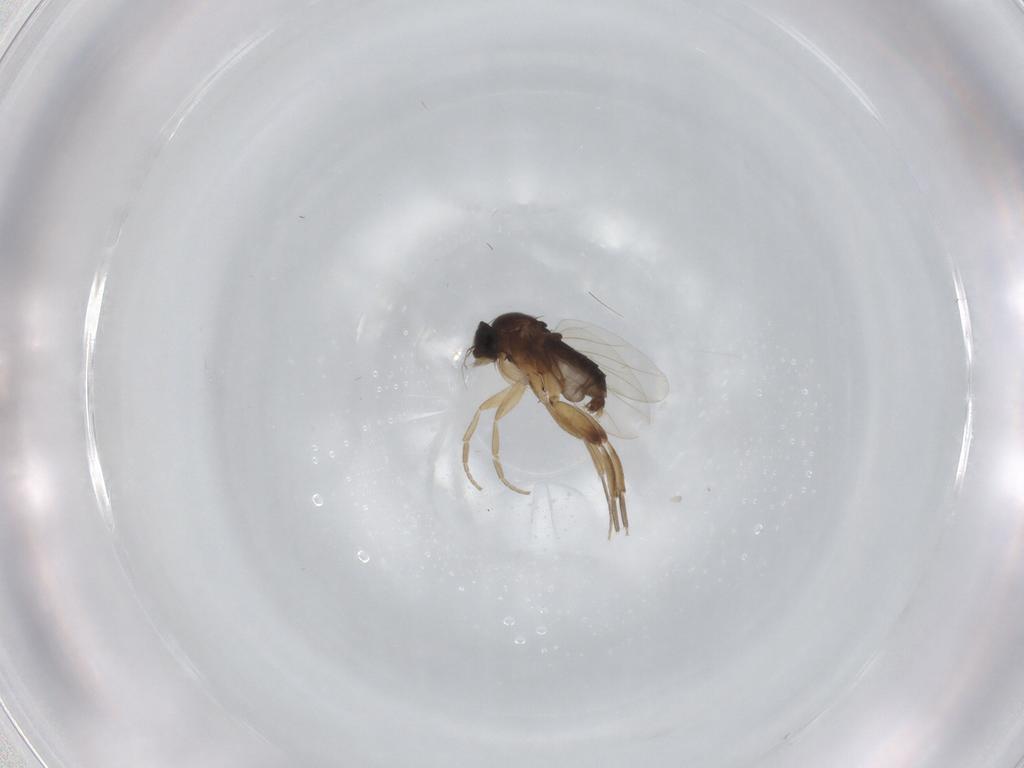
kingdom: Animalia
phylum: Arthropoda
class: Insecta
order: Diptera
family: Phoridae
